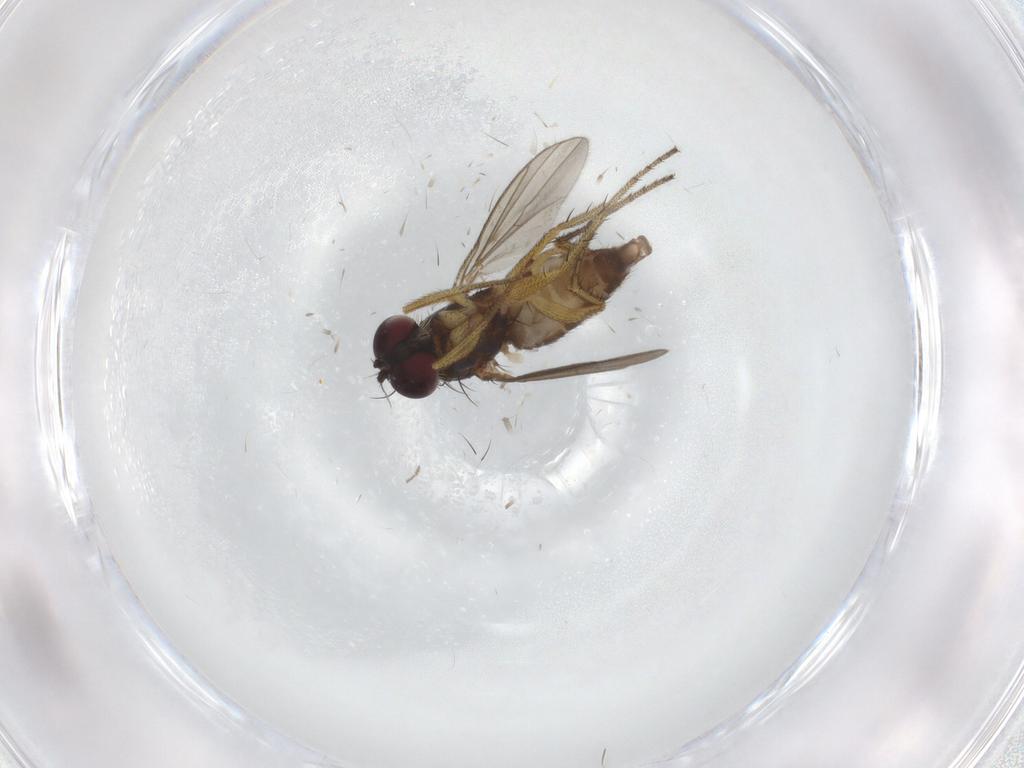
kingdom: Animalia
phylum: Arthropoda
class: Insecta
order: Diptera
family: Dolichopodidae
